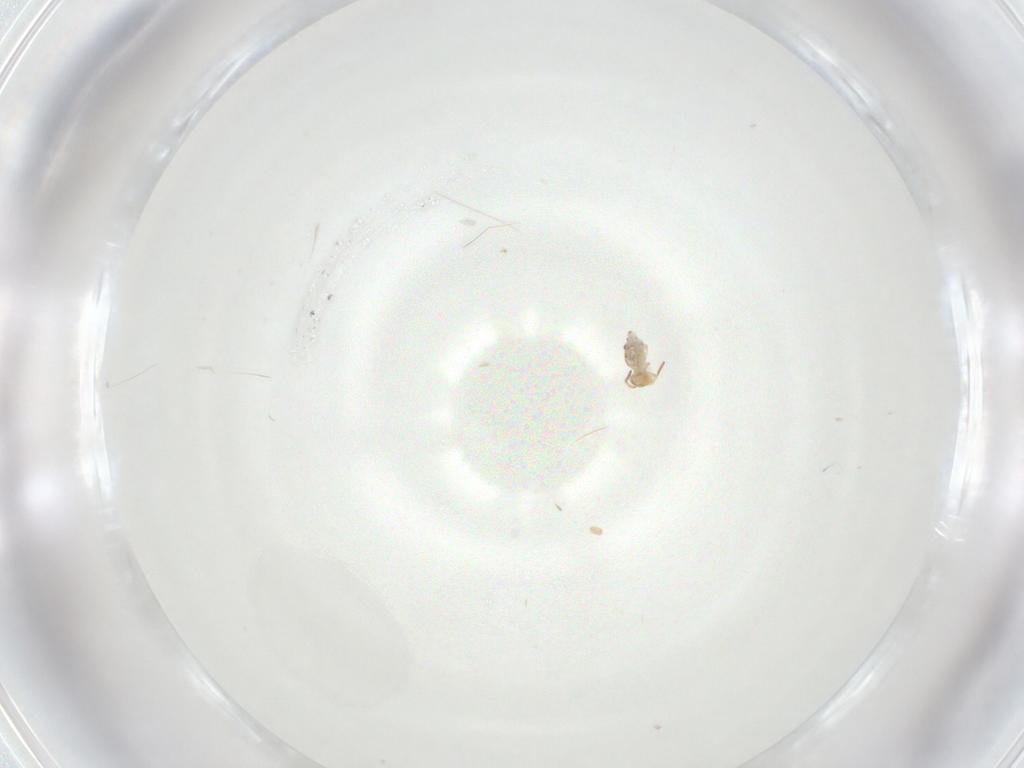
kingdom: Animalia
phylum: Arthropoda
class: Collembola
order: Symphypleona
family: Bourletiellidae
